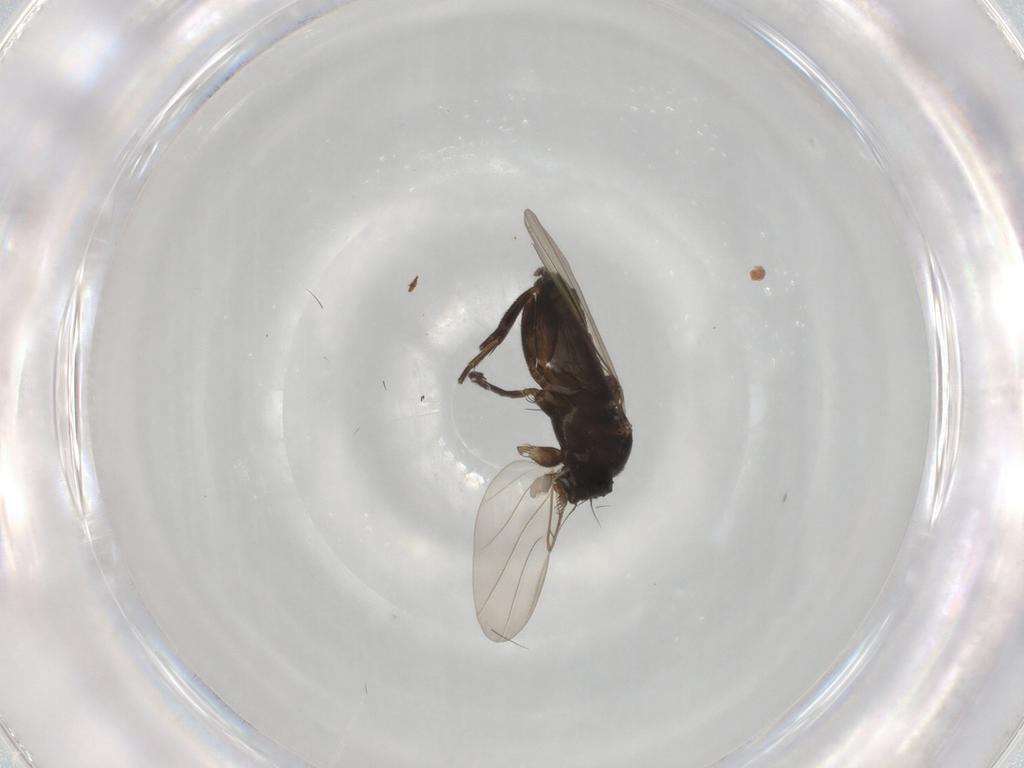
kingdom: Animalia
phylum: Arthropoda
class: Insecta
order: Diptera
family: Phoridae
